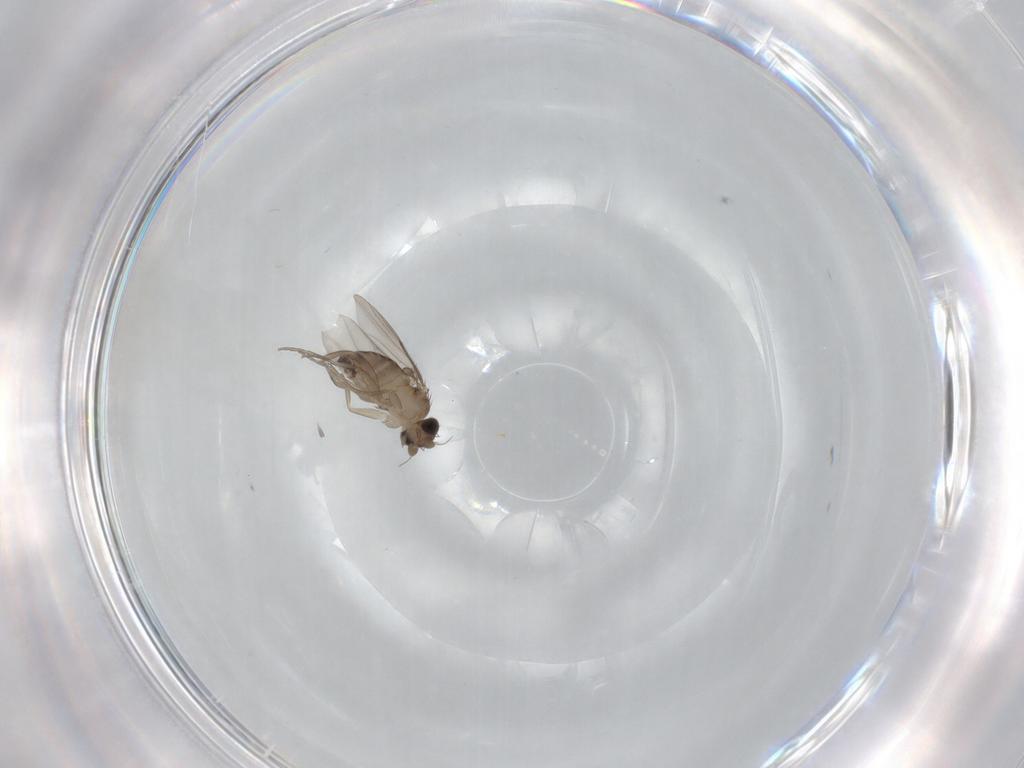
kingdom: Animalia
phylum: Arthropoda
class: Insecta
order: Diptera
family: Phoridae
